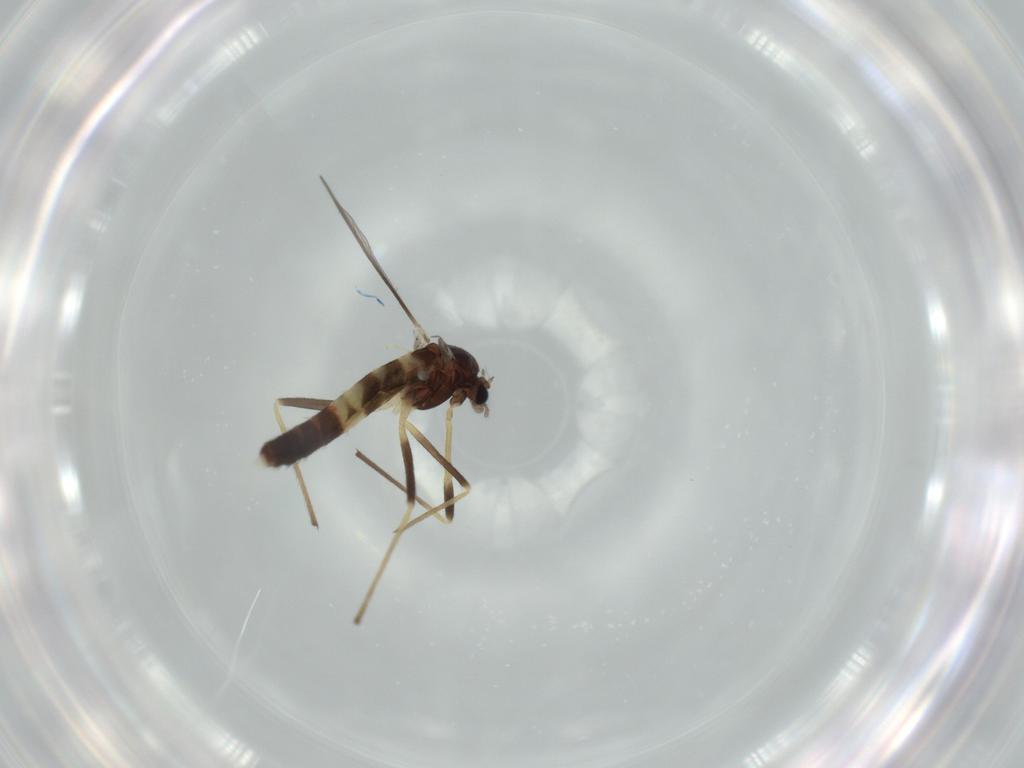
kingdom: Animalia
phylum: Arthropoda
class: Insecta
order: Diptera
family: Chironomidae
